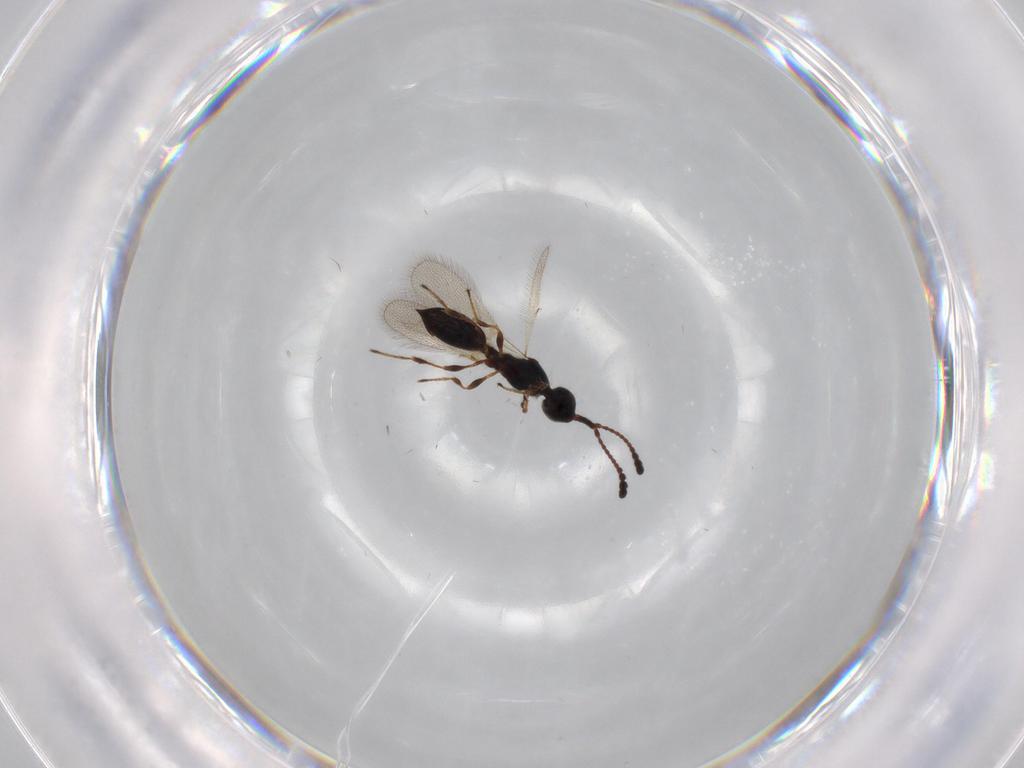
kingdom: Animalia
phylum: Arthropoda
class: Insecta
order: Hymenoptera
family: Diapriidae
